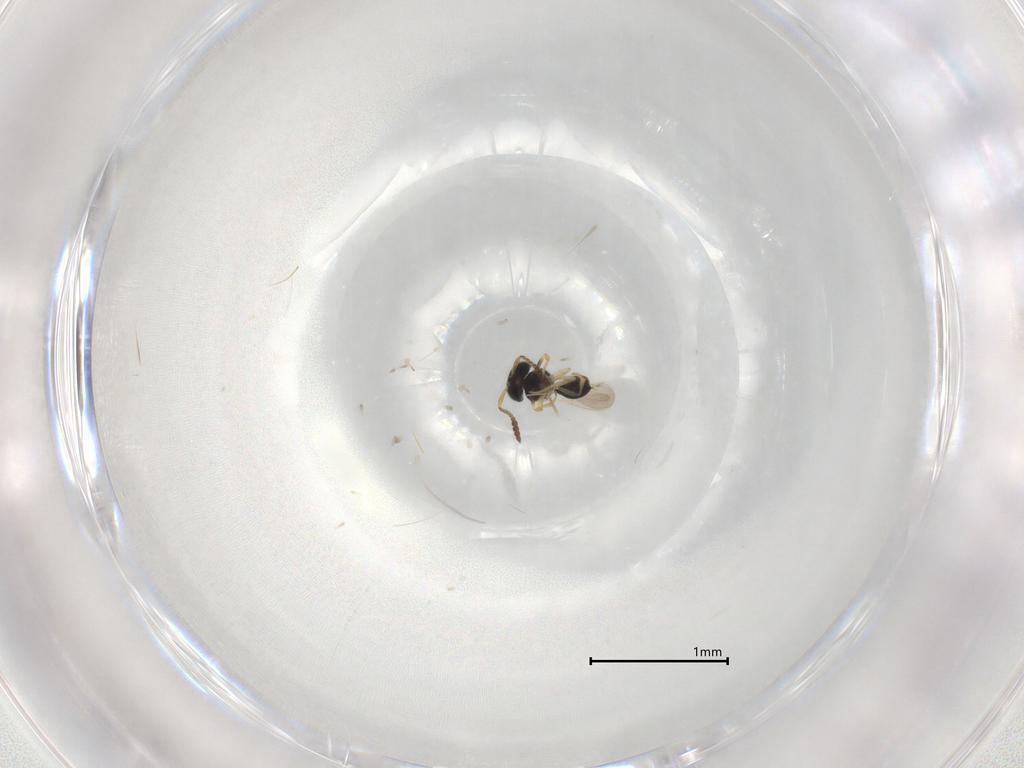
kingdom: Animalia
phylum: Arthropoda
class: Insecta
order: Hymenoptera
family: Scelionidae
